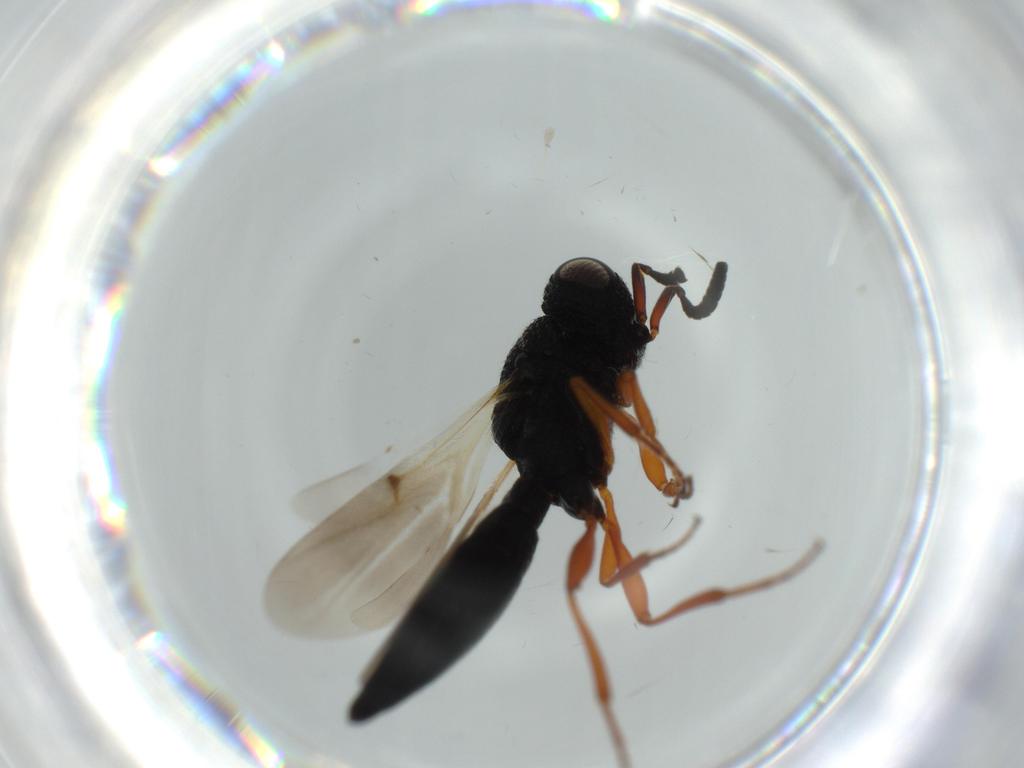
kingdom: Animalia
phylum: Arthropoda
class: Insecta
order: Hymenoptera
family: Scelionidae
